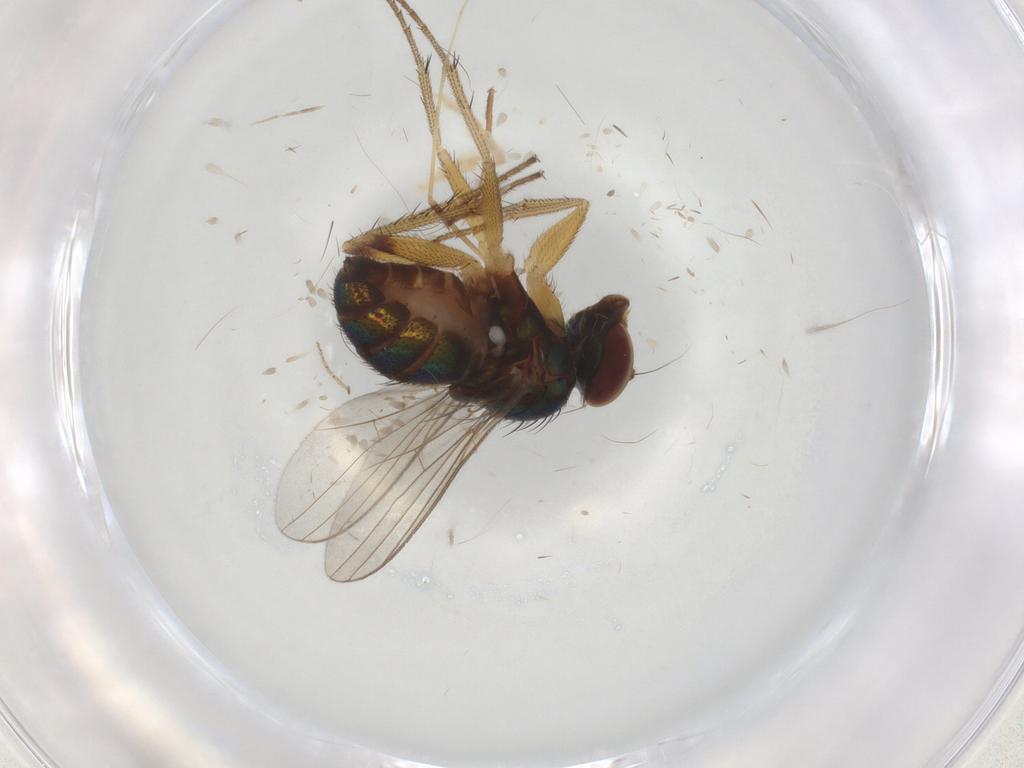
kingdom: Animalia
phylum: Arthropoda
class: Insecta
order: Diptera
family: Limoniidae
